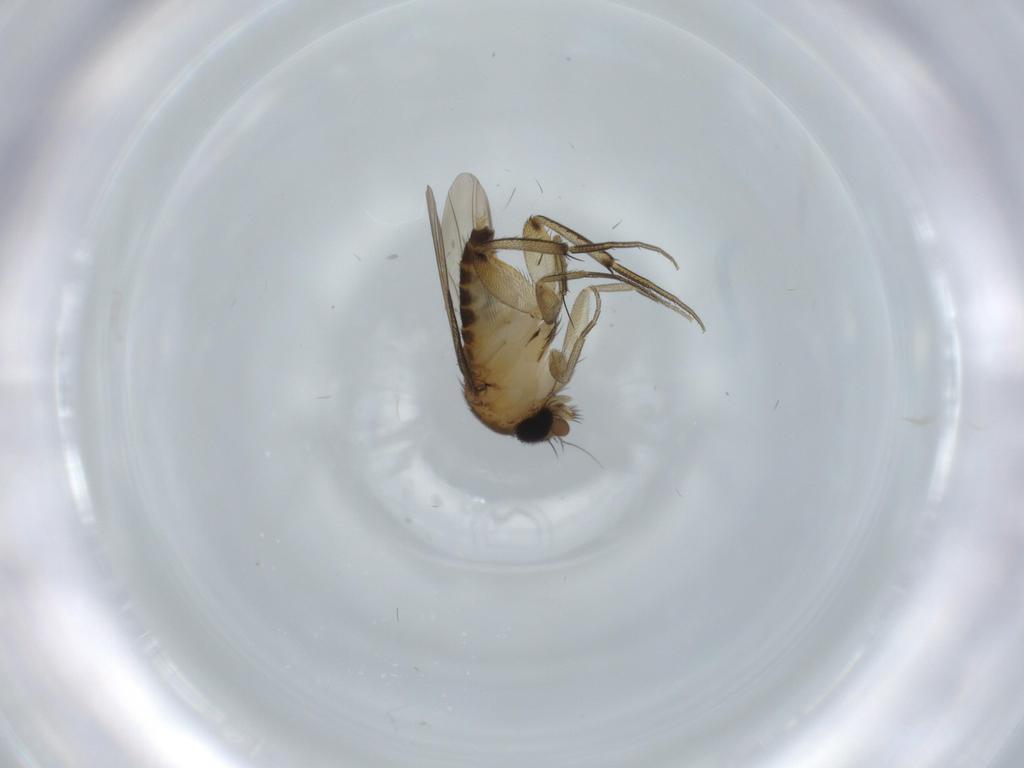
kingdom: Animalia
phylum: Arthropoda
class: Insecta
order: Diptera
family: Phoridae
